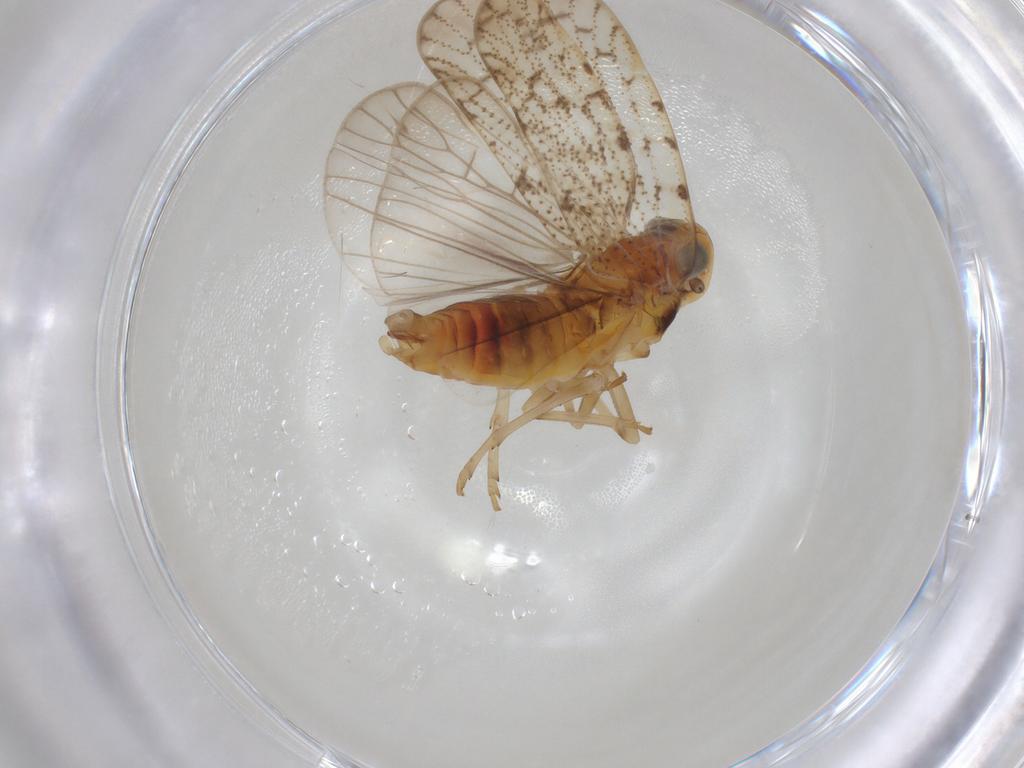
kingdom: Animalia
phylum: Arthropoda
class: Insecta
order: Diptera
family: Cecidomyiidae
